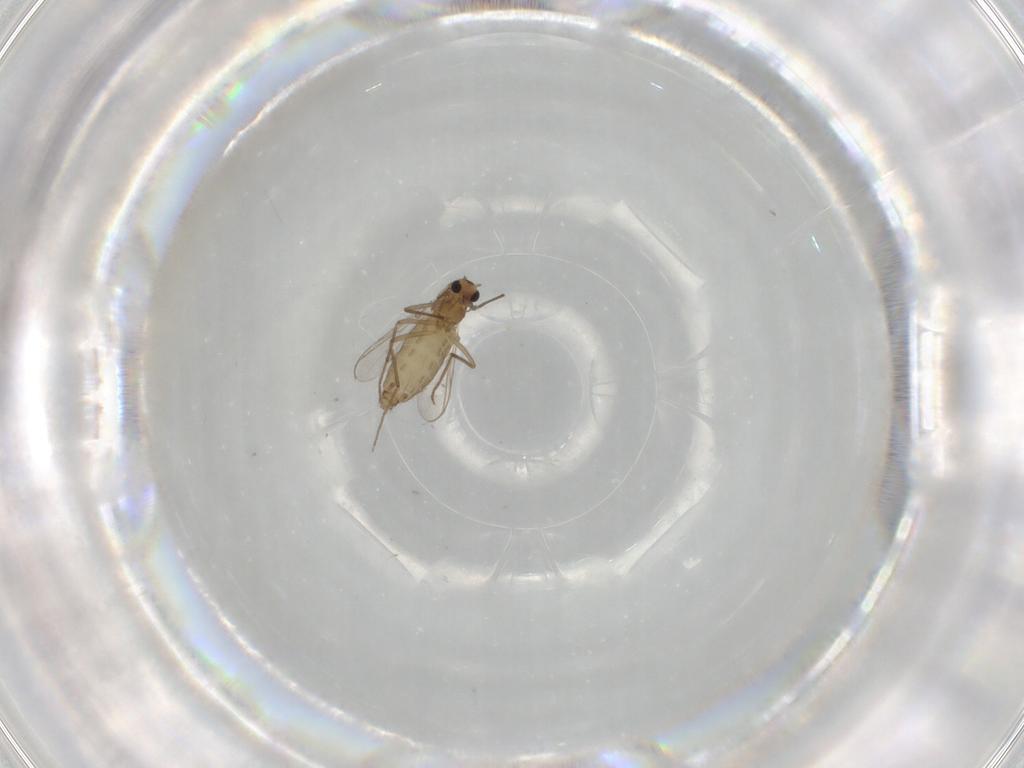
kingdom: Animalia
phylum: Arthropoda
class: Insecta
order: Diptera
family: Chironomidae
